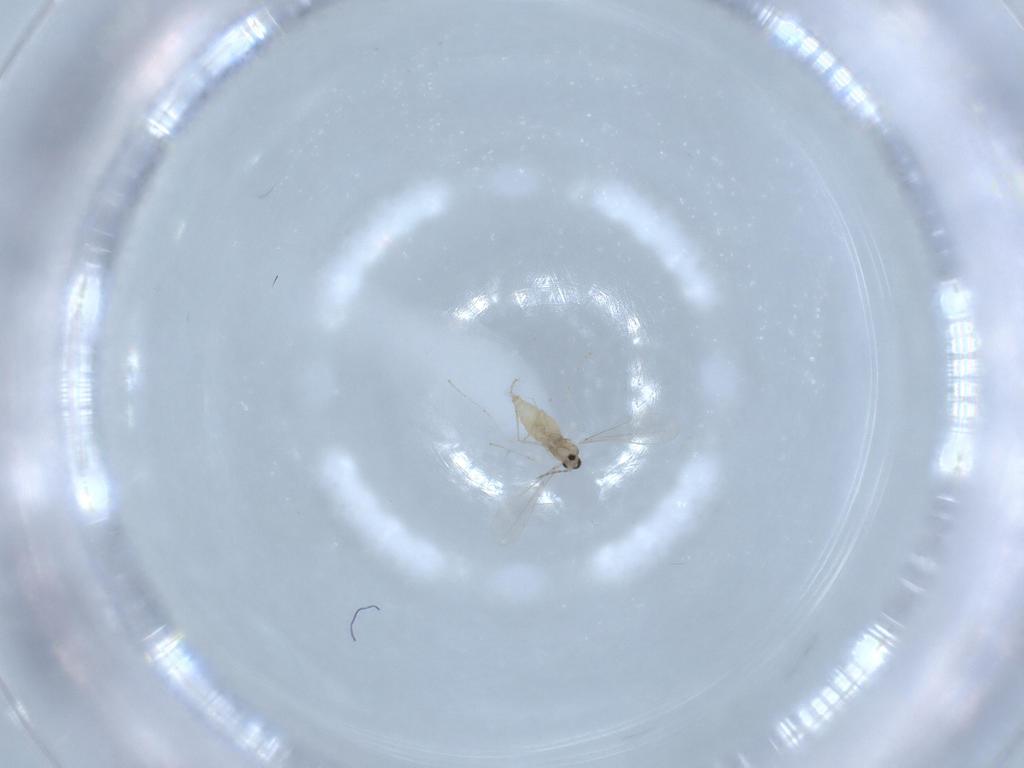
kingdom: Animalia
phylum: Arthropoda
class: Insecta
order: Diptera
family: Cecidomyiidae
